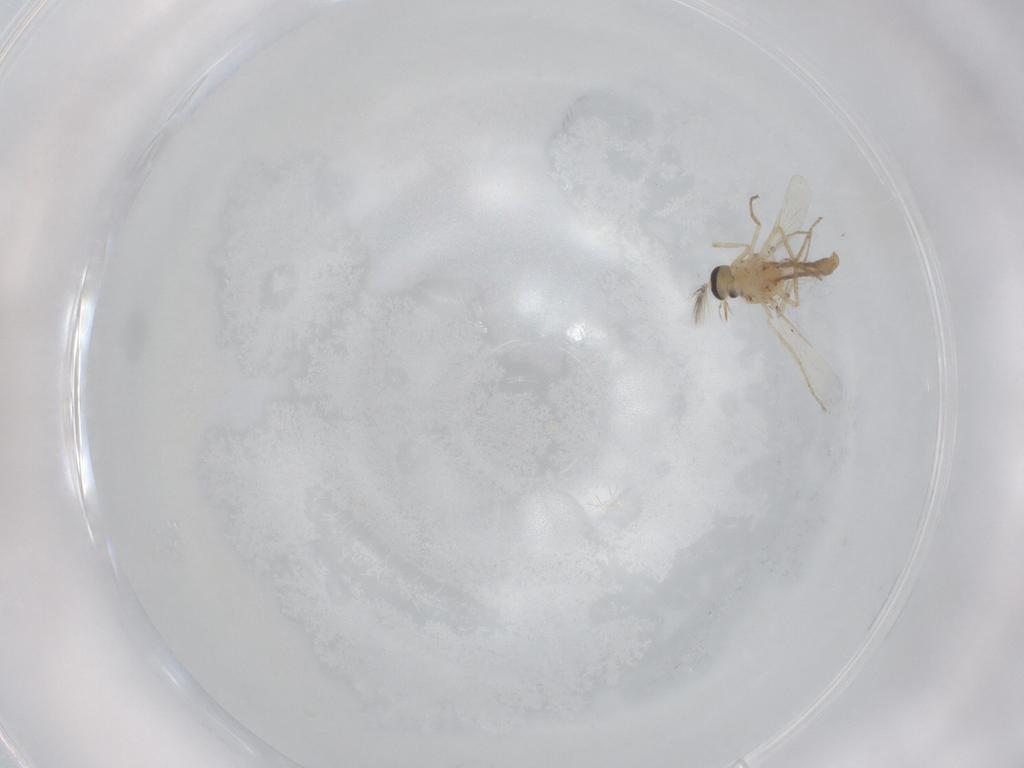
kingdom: Animalia
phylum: Arthropoda
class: Insecta
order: Diptera
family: Ceratopogonidae
